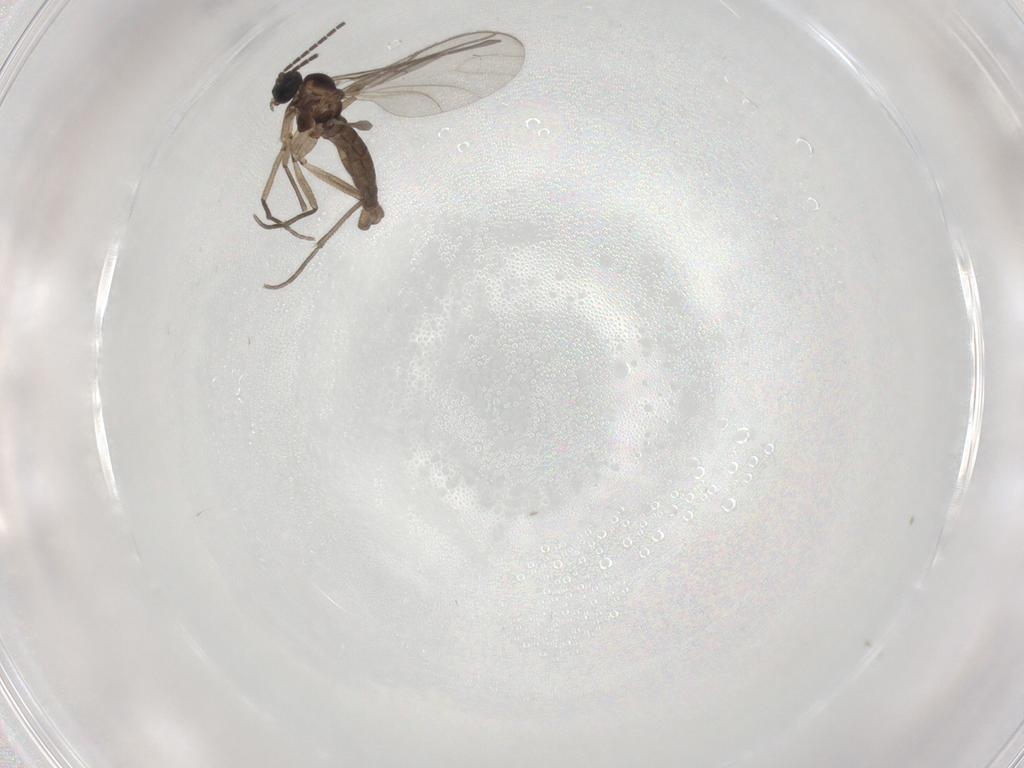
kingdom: Animalia
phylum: Arthropoda
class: Insecta
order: Diptera
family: Sciaridae
